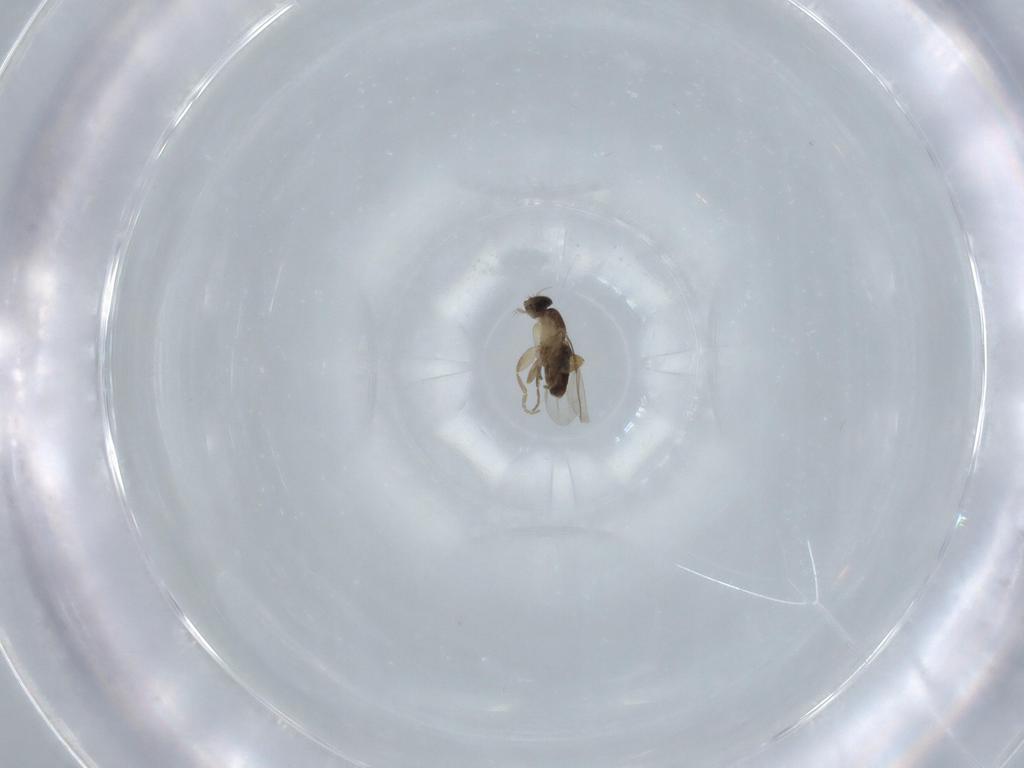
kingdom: Animalia
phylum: Arthropoda
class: Insecta
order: Diptera
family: Phoridae
